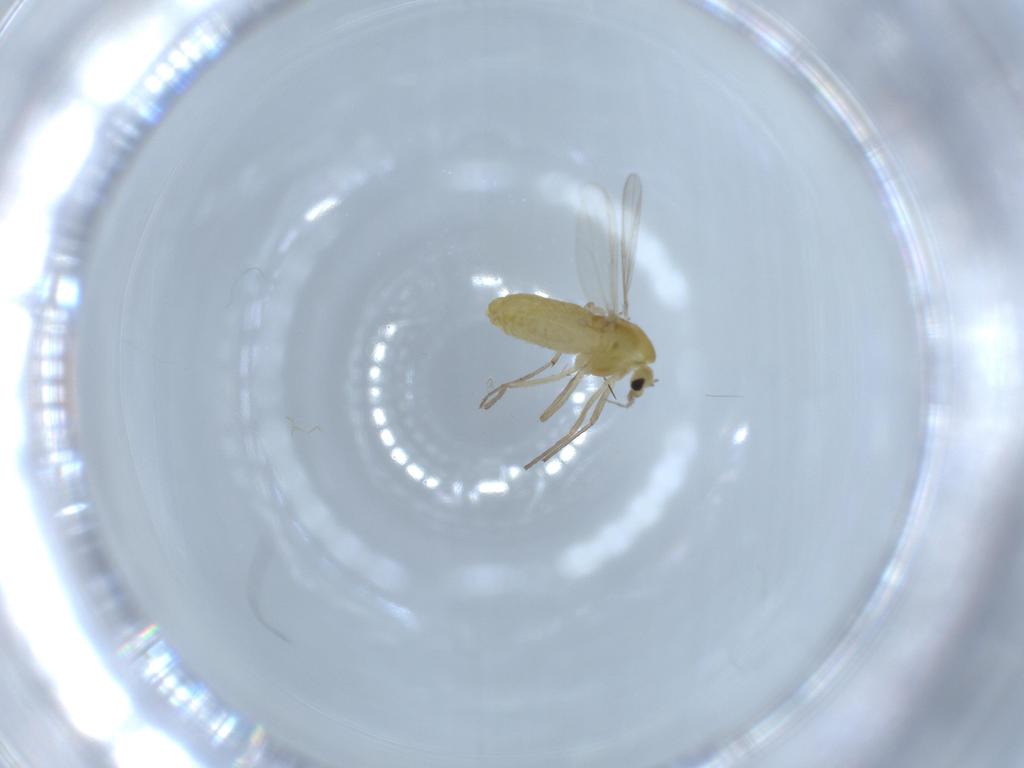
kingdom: Animalia
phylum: Arthropoda
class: Insecta
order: Diptera
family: Chironomidae
